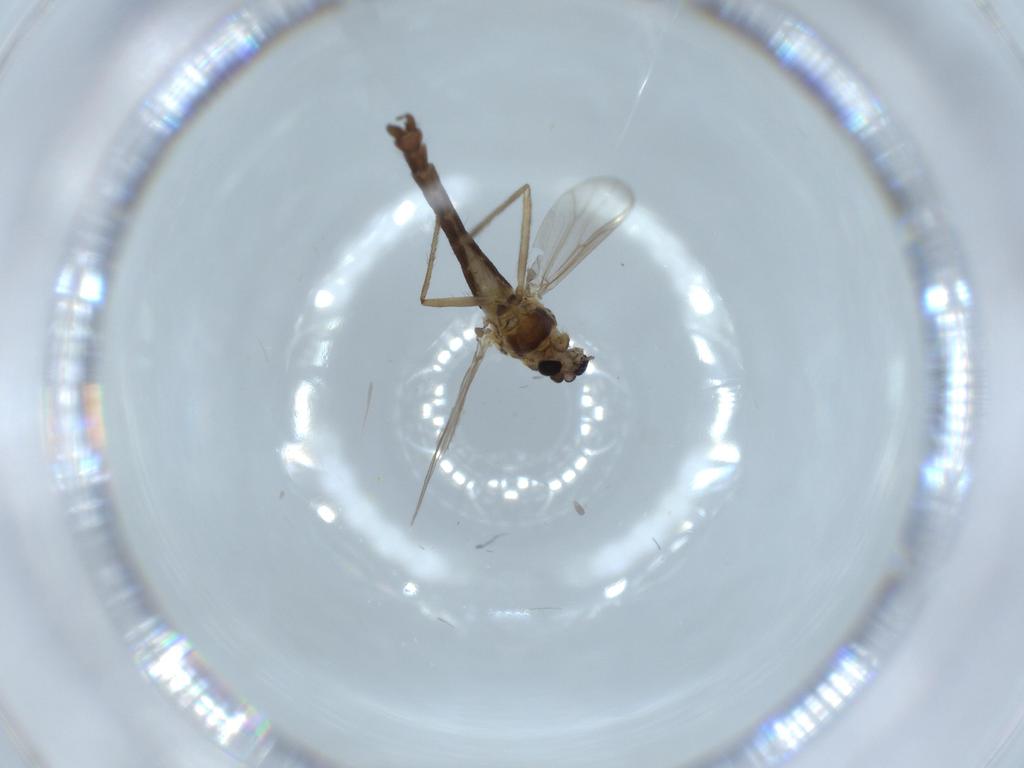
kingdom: Animalia
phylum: Arthropoda
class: Insecta
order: Diptera
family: Chironomidae
